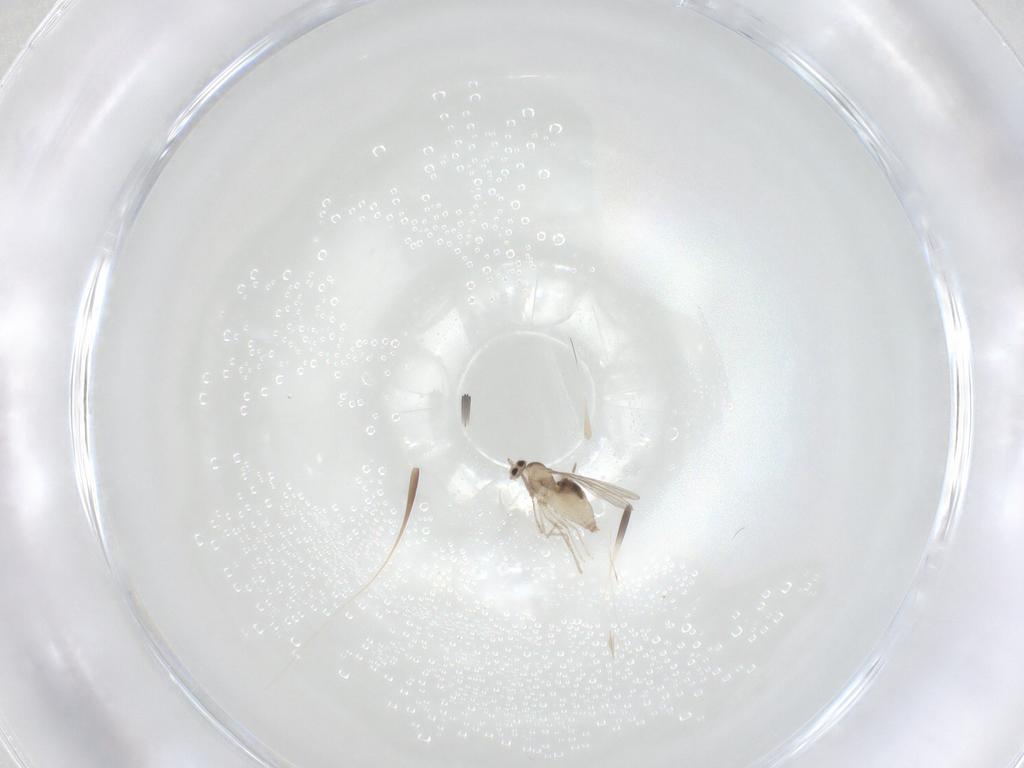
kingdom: Animalia
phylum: Arthropoda
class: Insecta
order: Diptera
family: Cecidomyiidae
